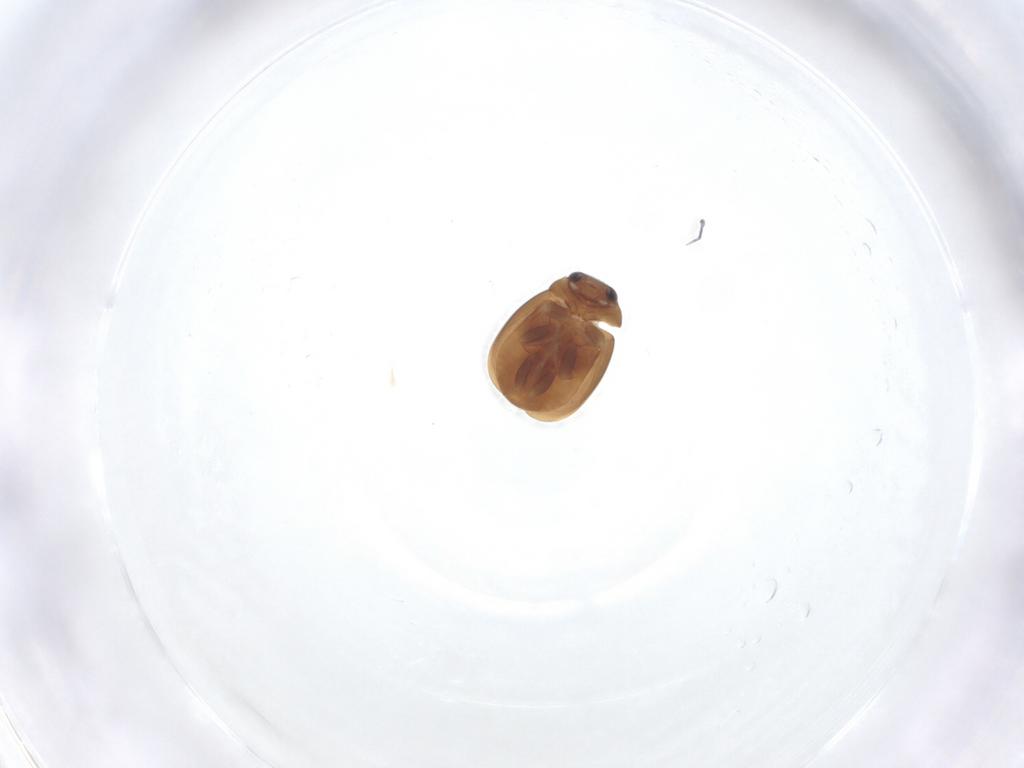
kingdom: Animalia
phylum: Arthropoda
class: Insecta
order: Coleoptera
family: Coccinellidae
